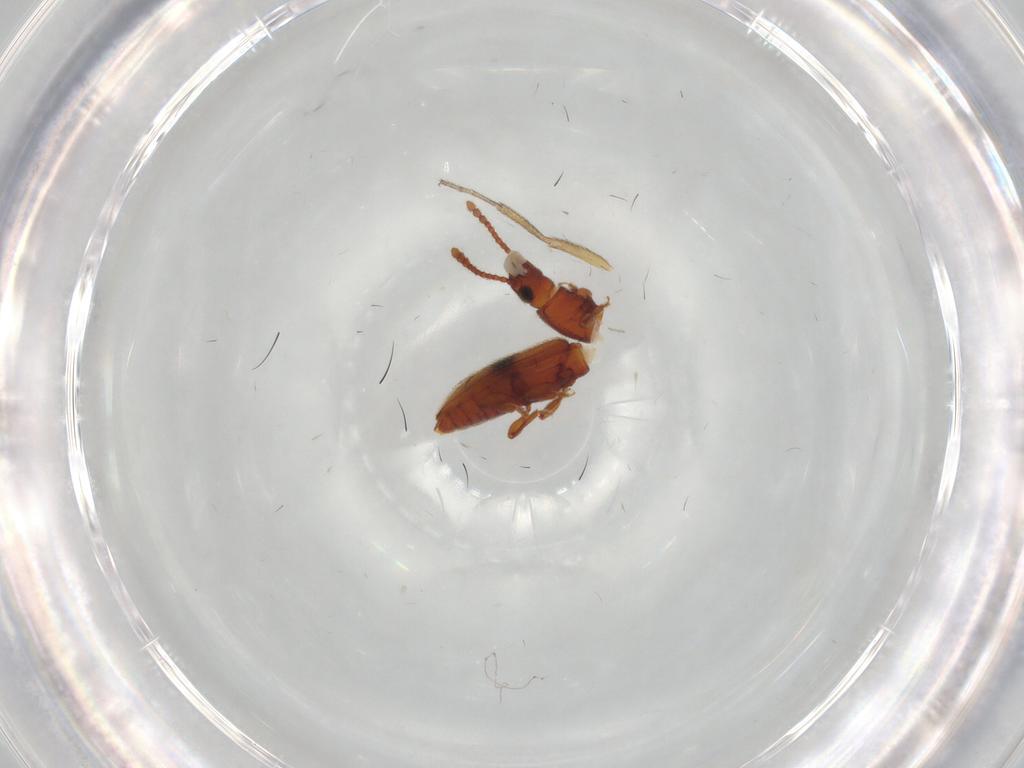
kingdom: Animalia
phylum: Arthropoda
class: Insecta
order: Coleoptera
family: Silvanidae
